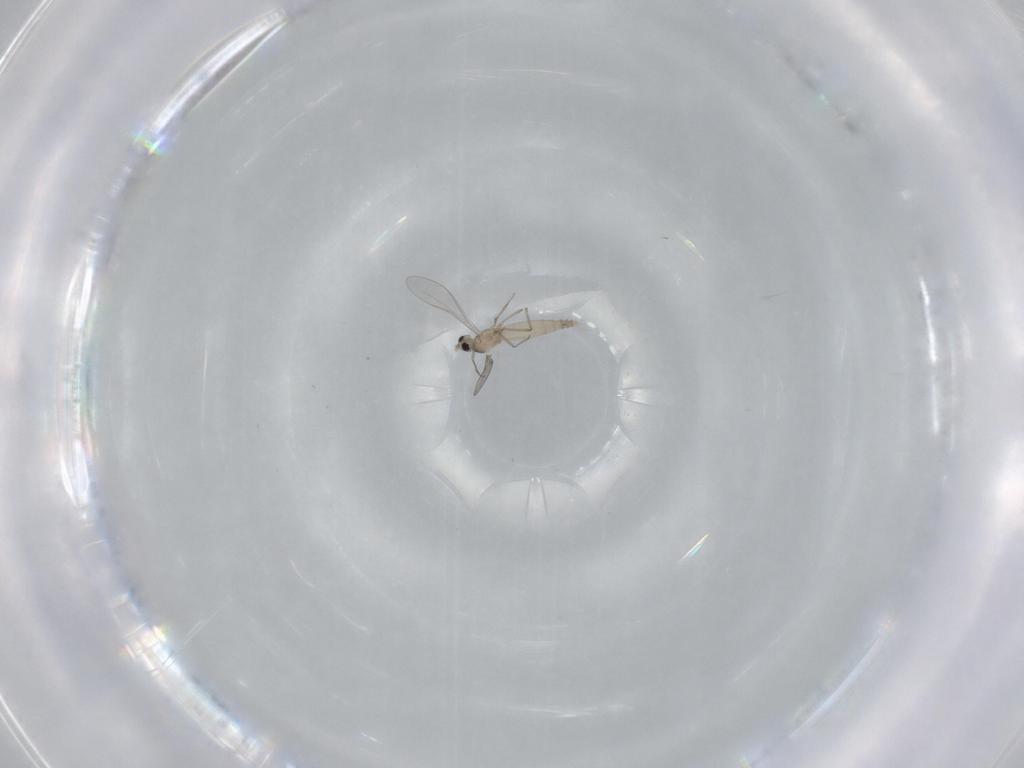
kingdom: Animalia
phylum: Arthropoda
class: Insecta
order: Diptera
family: Cecidomyiidae
